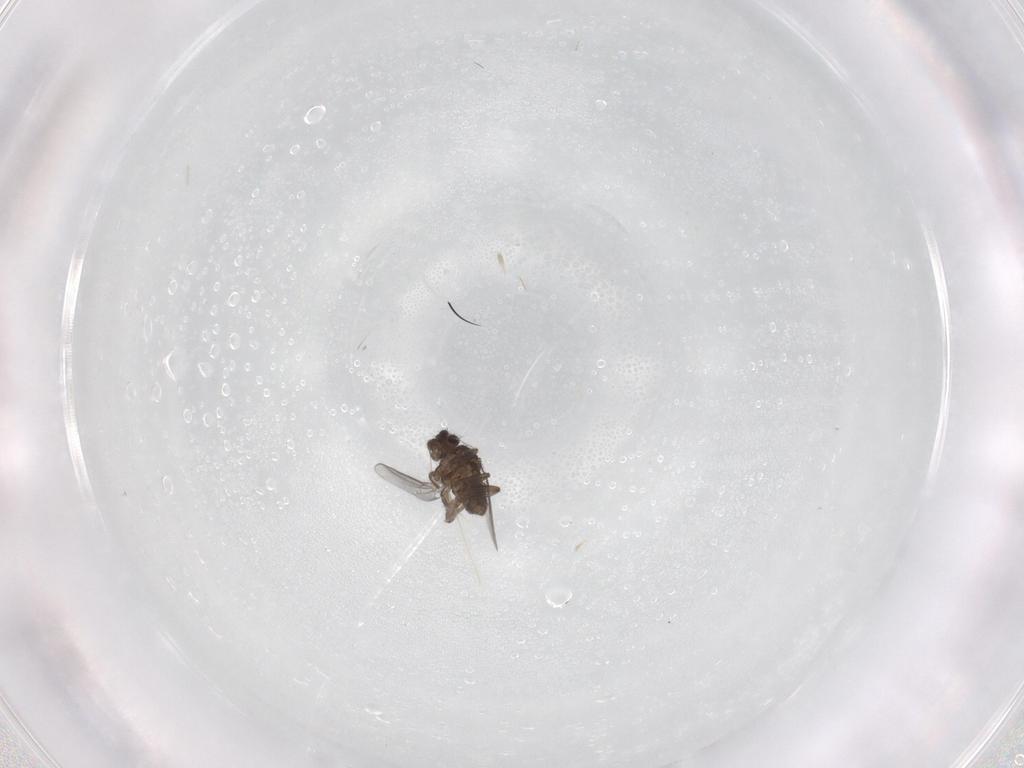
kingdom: Animalia
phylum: Arthropoda
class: Insecta
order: Diptera
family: Sphaeroceridae
